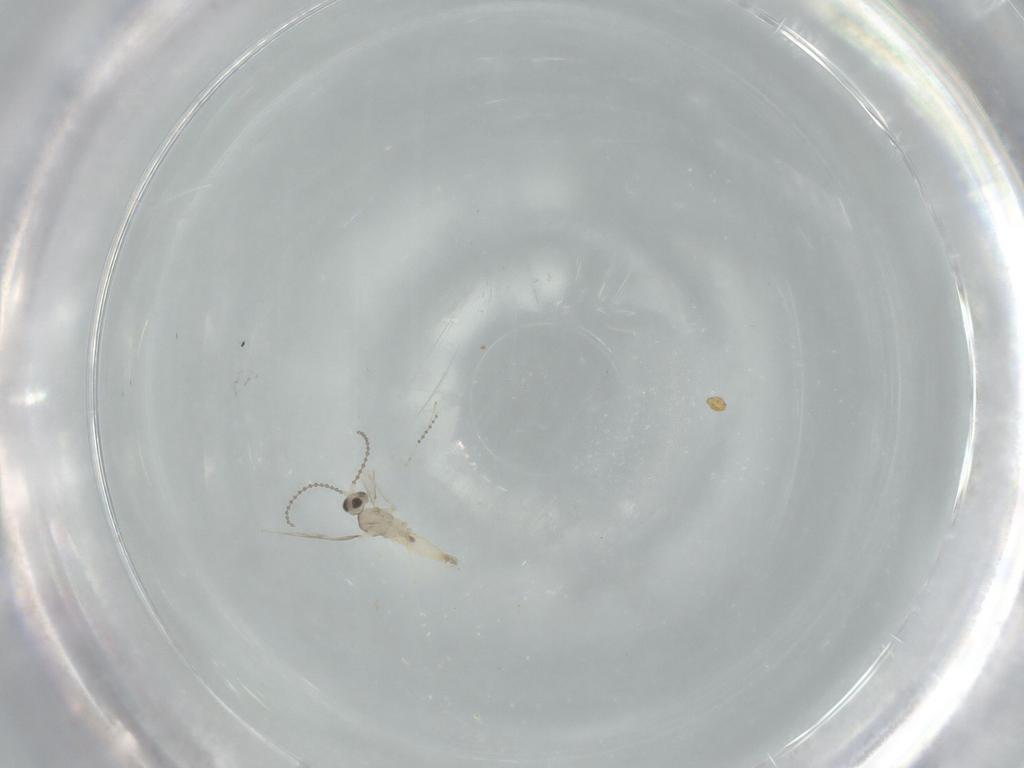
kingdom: Animalia
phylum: Arthropoda
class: Insecta
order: Diptera
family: Cecidomyiidae
